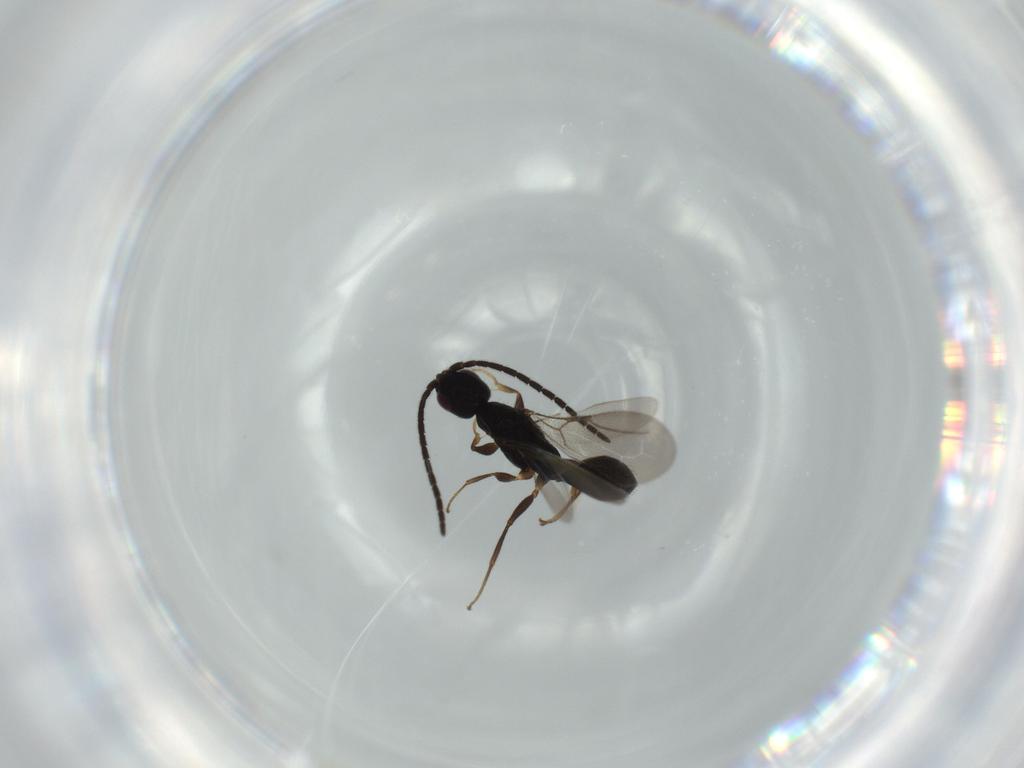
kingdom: Animalia
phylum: Arthropoda
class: Insecta
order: Hymenoptera
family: Bethylidae
